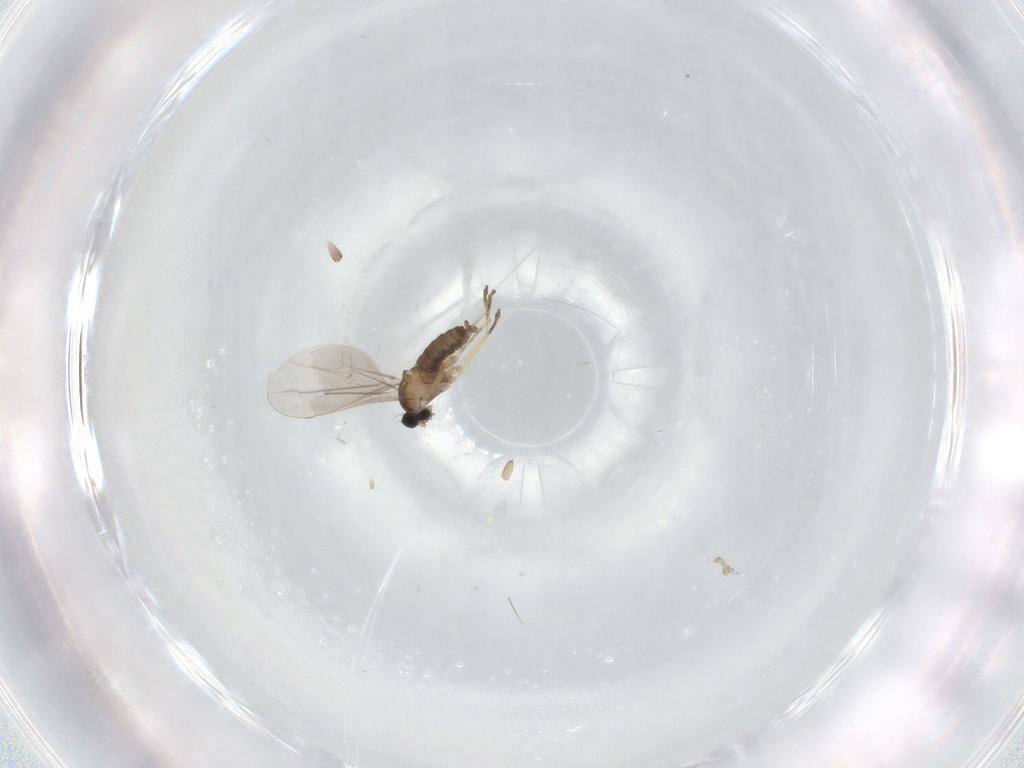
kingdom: Animalia
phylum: Arthropoda
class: Insecta
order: Diptera
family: Cecidomyiidae
